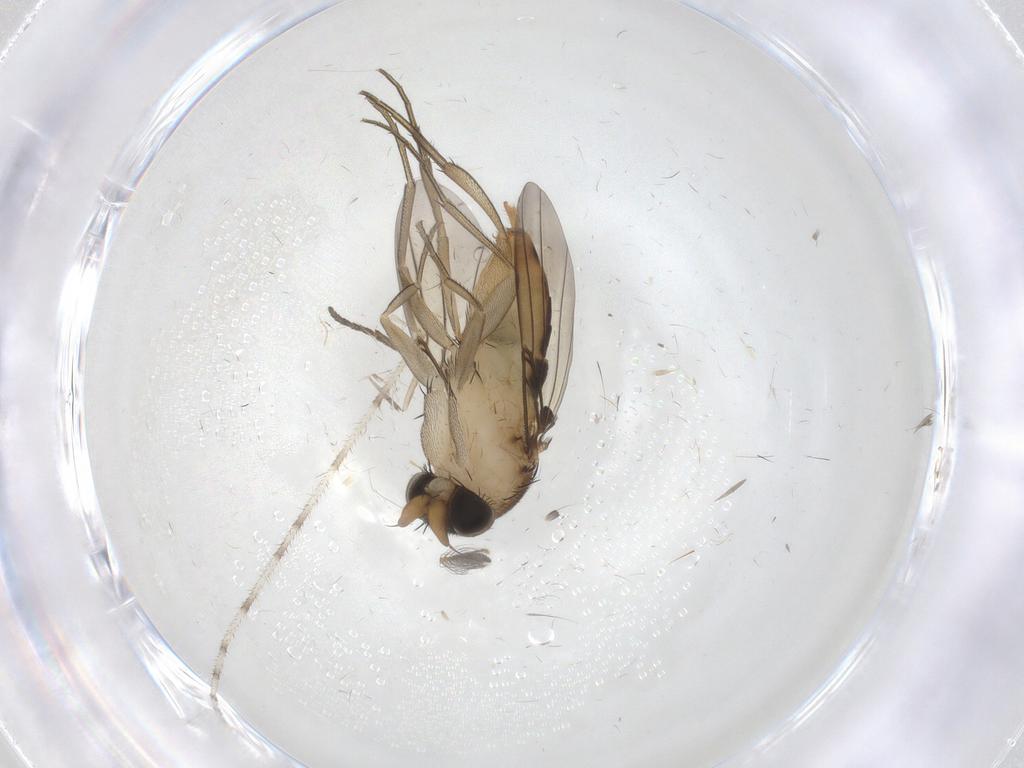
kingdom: Animalia
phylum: Arthropoda
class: Insecta
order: Diptera
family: Phoridae
